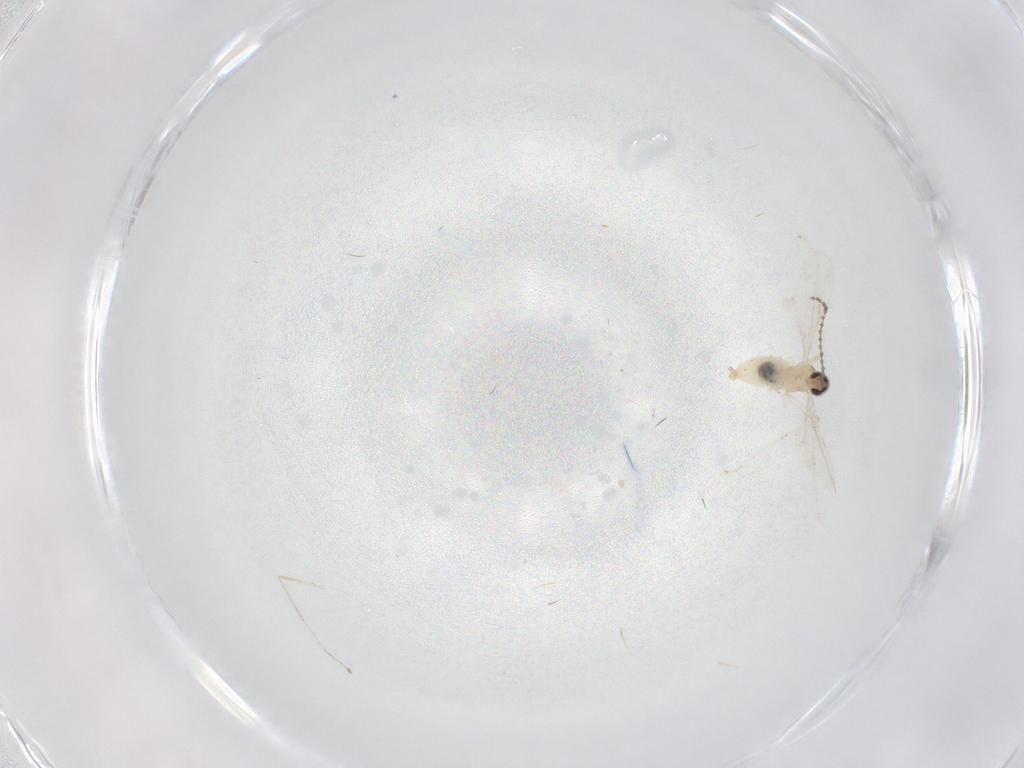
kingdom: Animalia
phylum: Arthropoda
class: Insecta
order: Diptera
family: Cecidomyiidae
